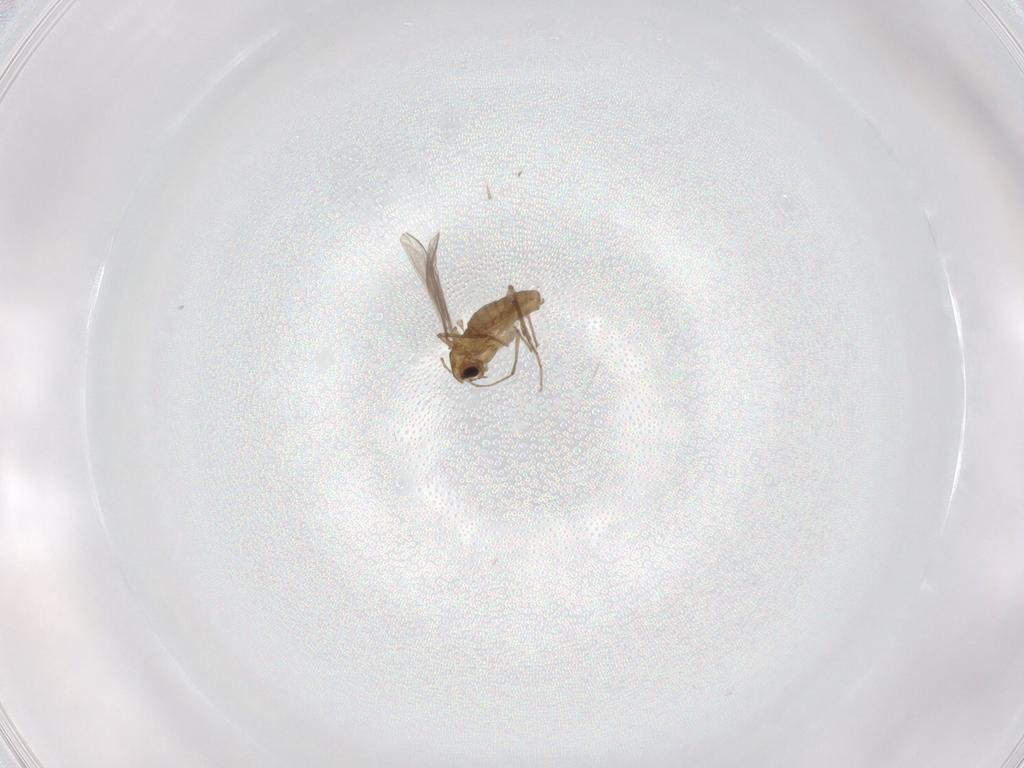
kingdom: Animalia
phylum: Arthropoda
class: Insecta
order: Diptera
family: Chironomidae
